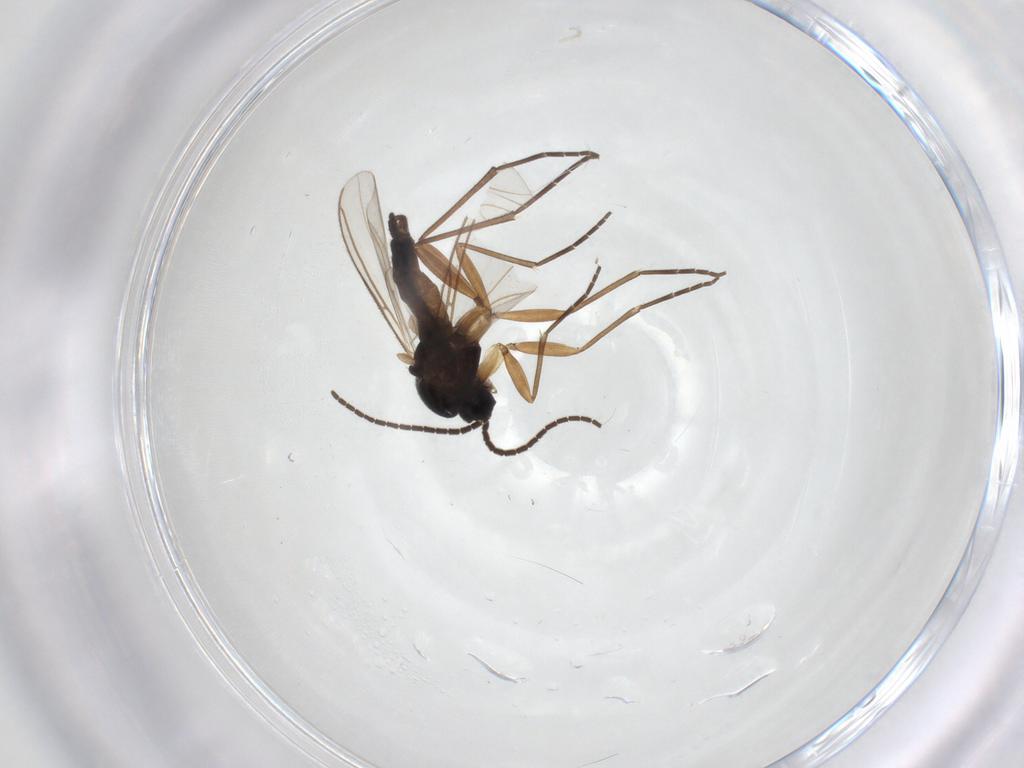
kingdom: Animalia
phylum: Arthropoda
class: Insecta
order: Diptera
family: Sciaridae
